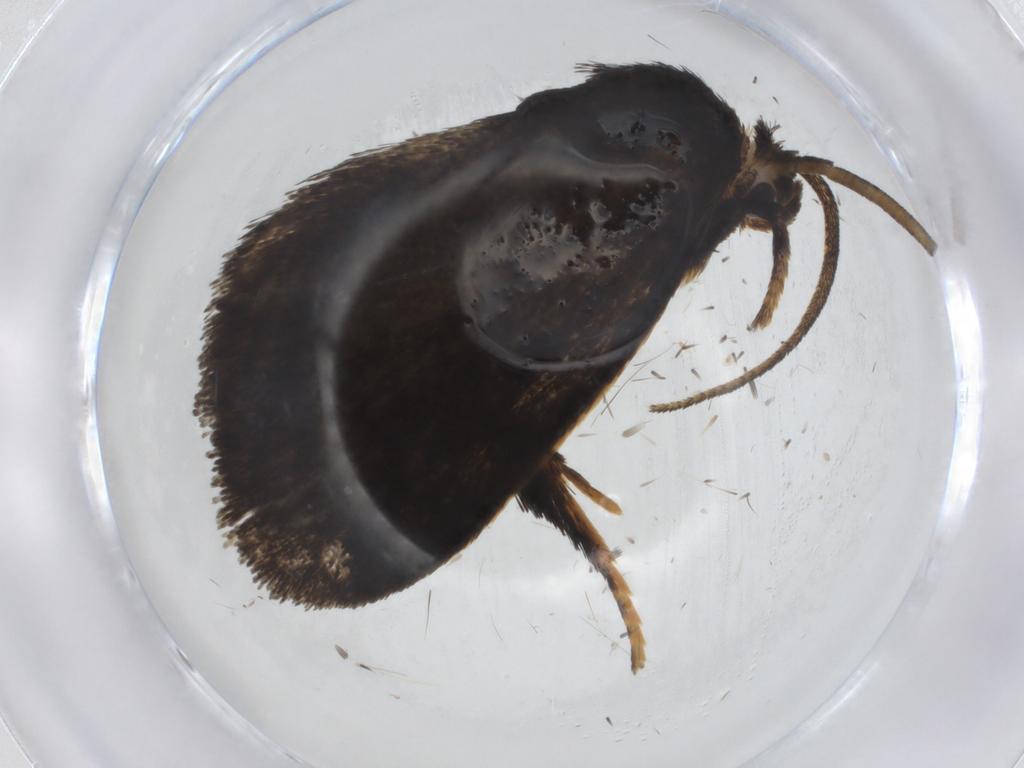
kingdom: Animalia
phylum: Arthropoda
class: Insecta
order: Lepidoptera
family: Limacodidae
